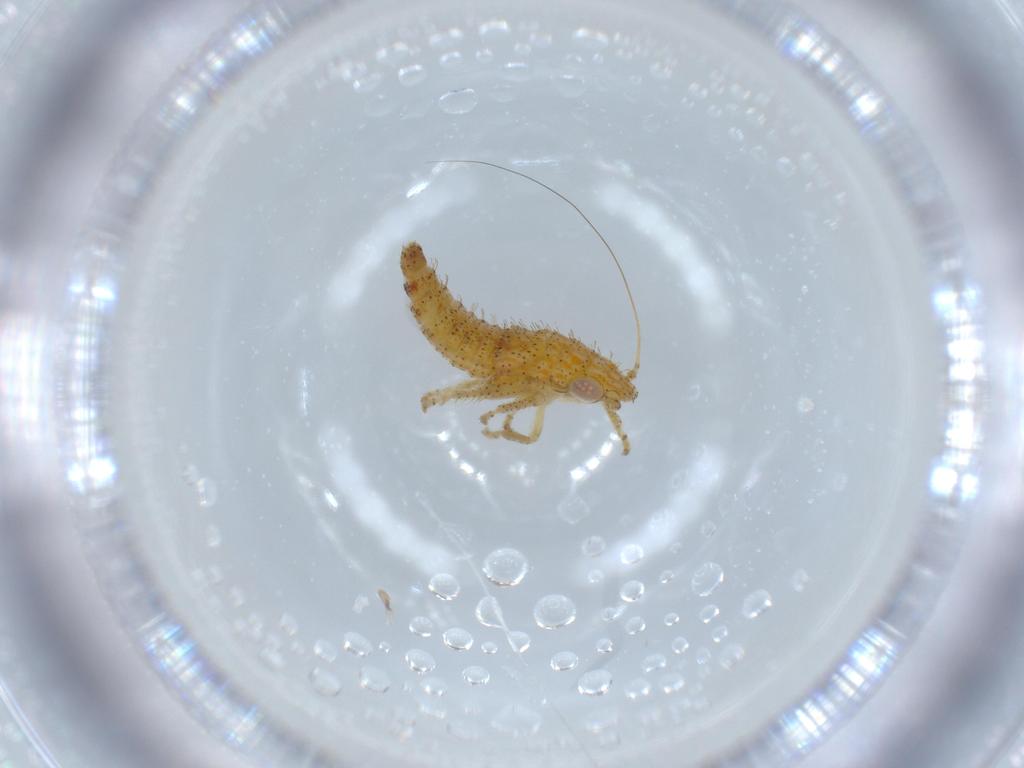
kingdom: Animalia
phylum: Arthropoda
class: Insecta
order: Hemiptera
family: Cicadellidae
